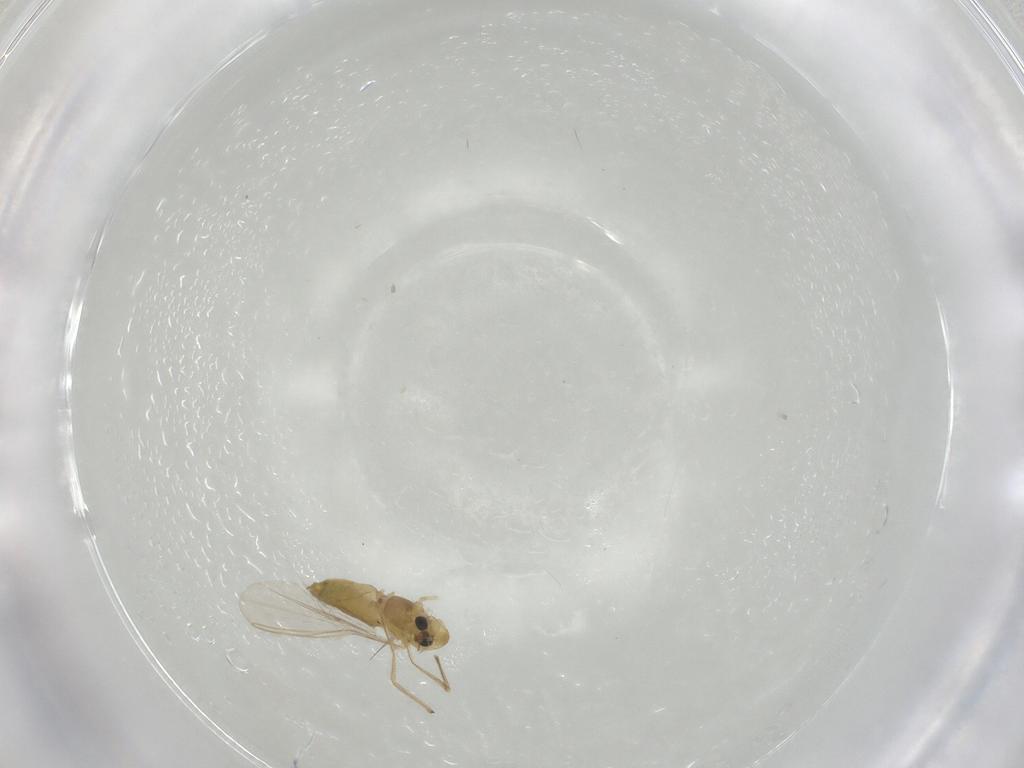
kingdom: Animalia
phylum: Arthropoda
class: Insecta
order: Diptera
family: Chironomidae
